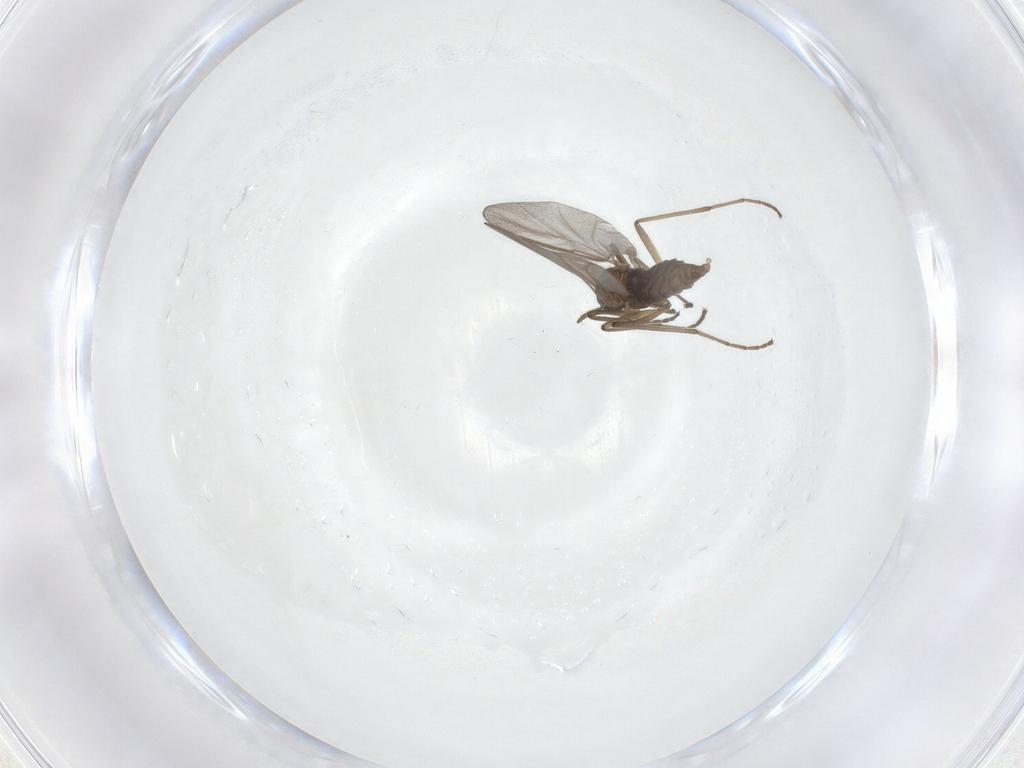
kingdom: Animalia
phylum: Arthropoda
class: Insecta
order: Diptera
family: Cecidomyiidae
